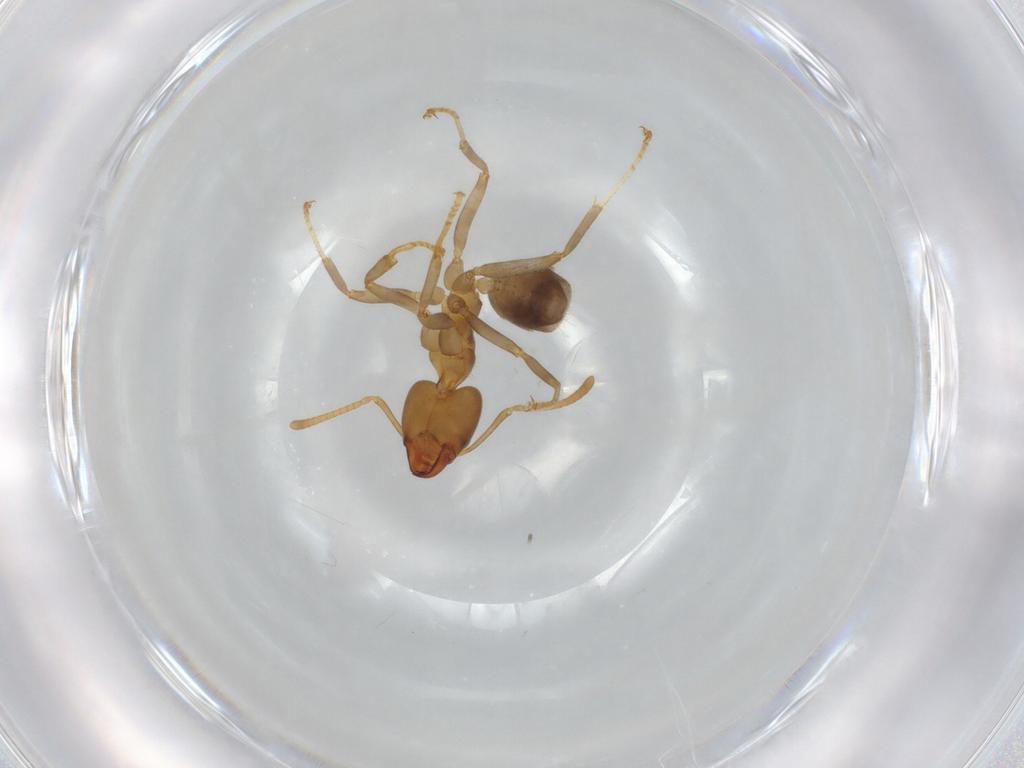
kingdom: Animalia
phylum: Arthropoda
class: Insecta
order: Hymenoptera
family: Formicidae
